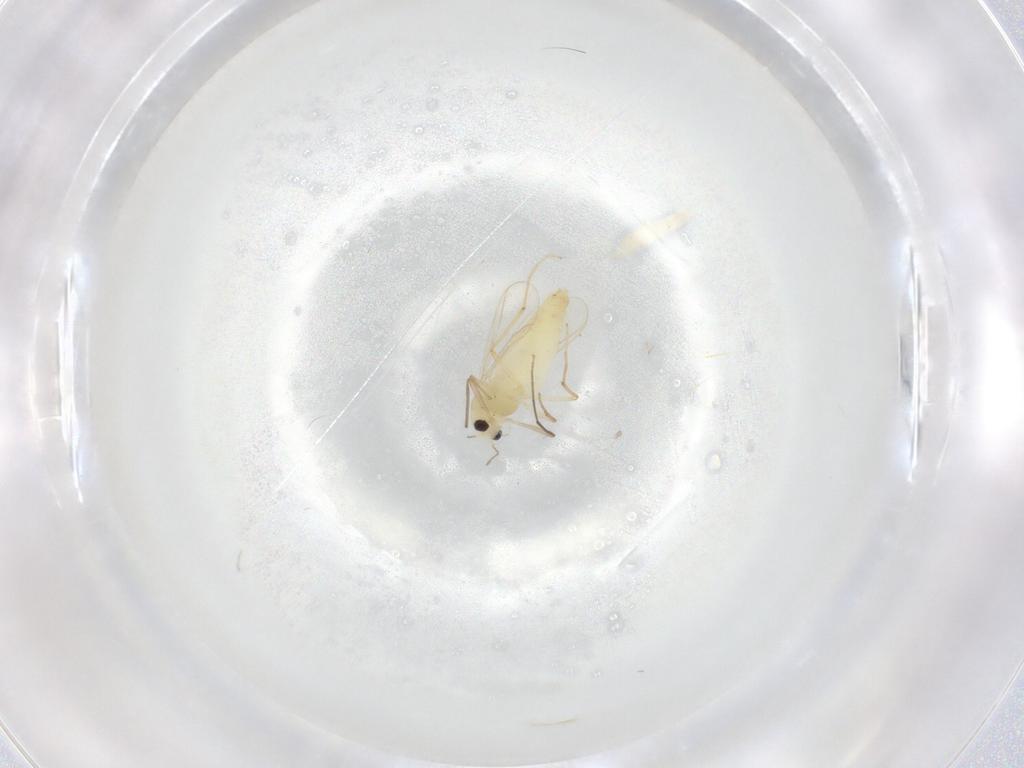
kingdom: Animalia
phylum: Arthropoda
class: Insecta
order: Diptera
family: Chironomidae
